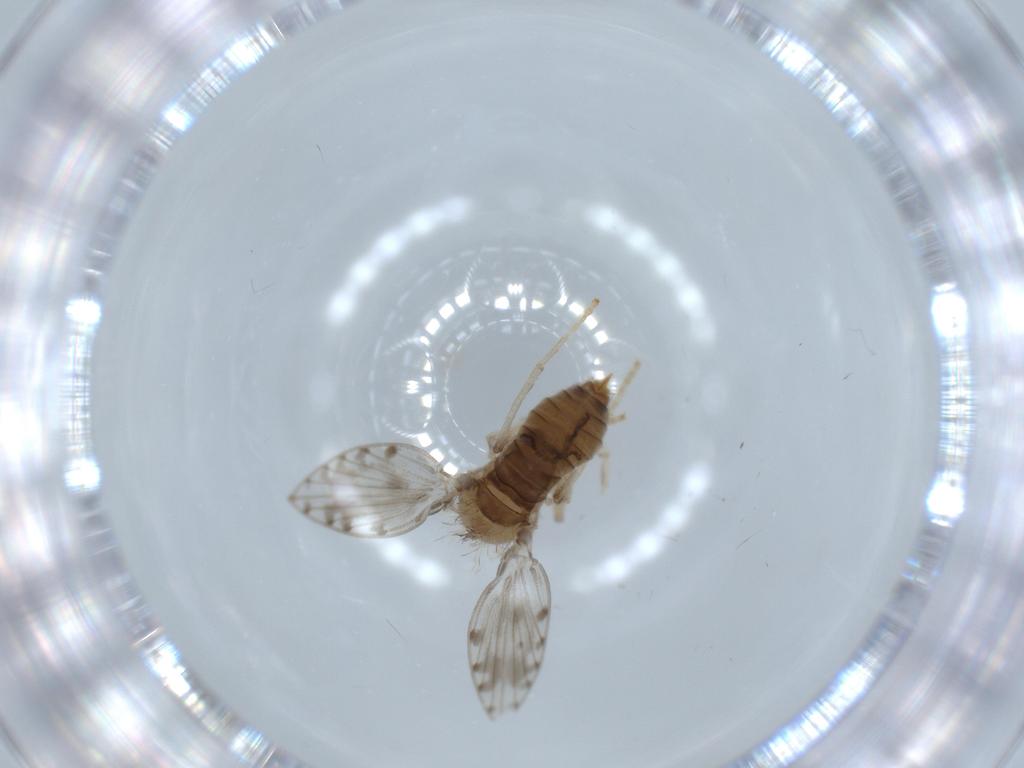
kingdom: Animalia
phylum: Arthropoda
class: Insecta
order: Diptera
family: Psychodidae
